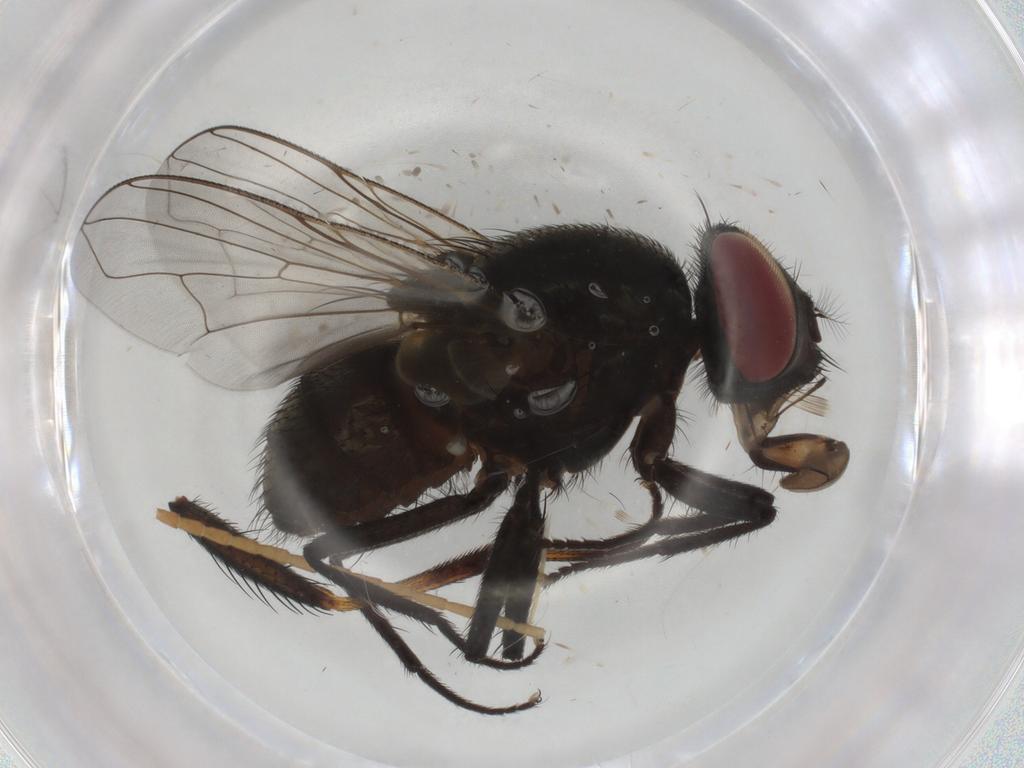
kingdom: Animalia
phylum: Arthropoda
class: Insecta
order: Diptera
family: Muscidae
